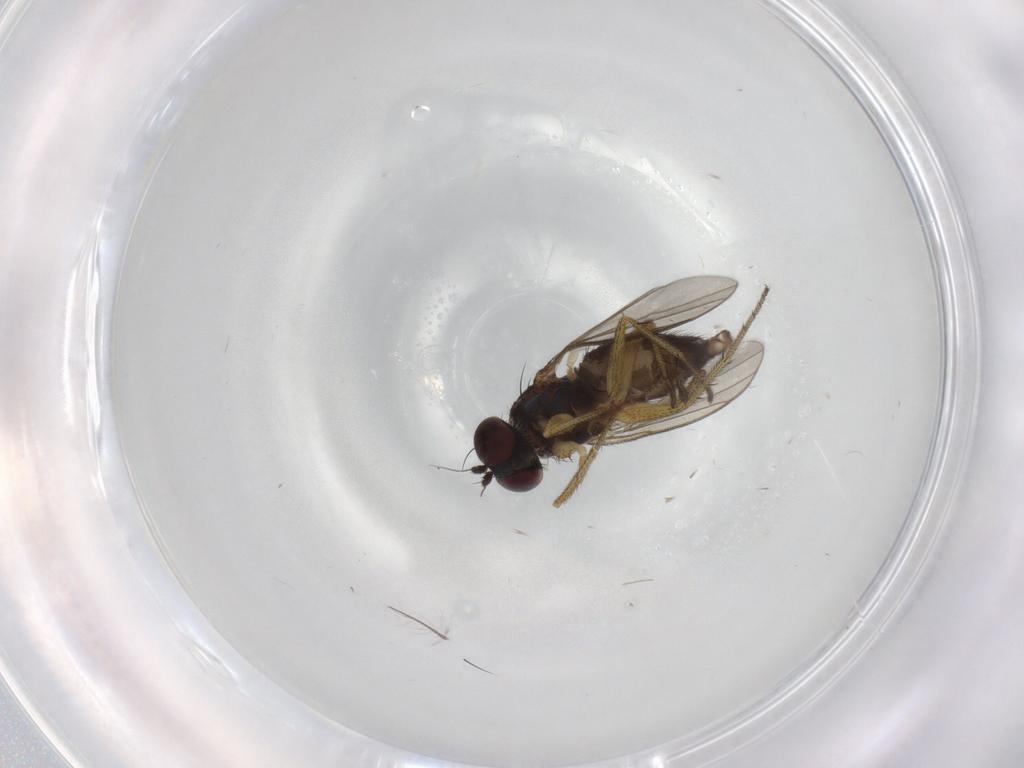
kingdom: Animalia
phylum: Arthropoda
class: Insecta
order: Diptera
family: Chironomidae
